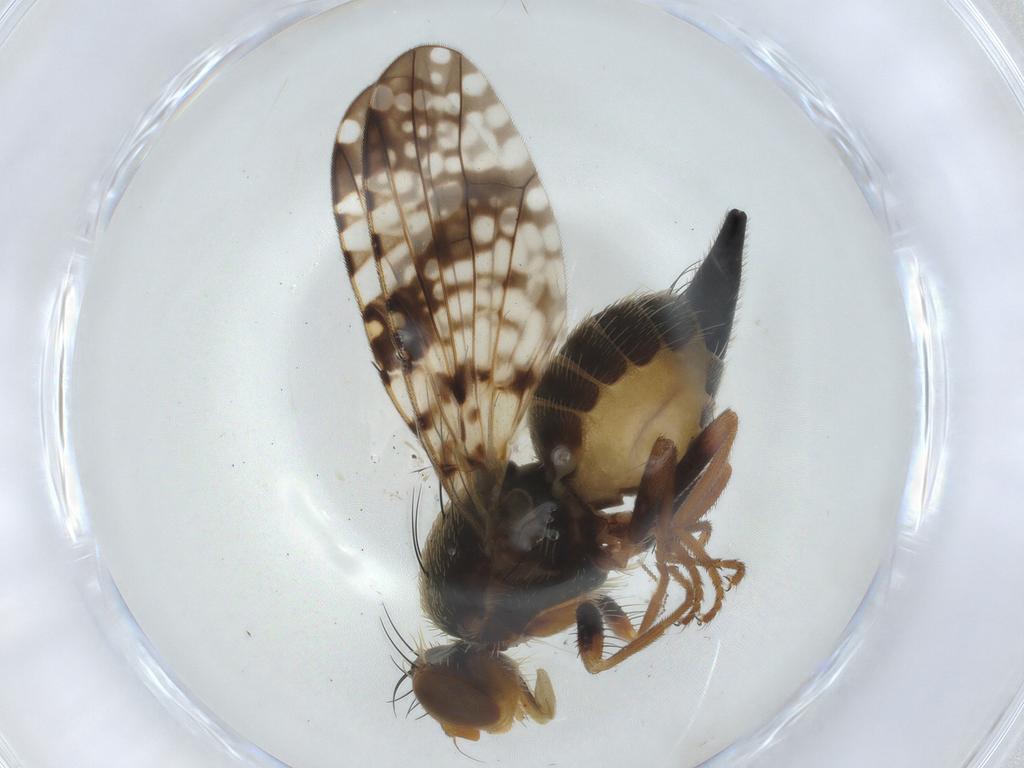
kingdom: Animalia
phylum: Arthropoda
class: Insecta
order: Diptera
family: Tephritidae
